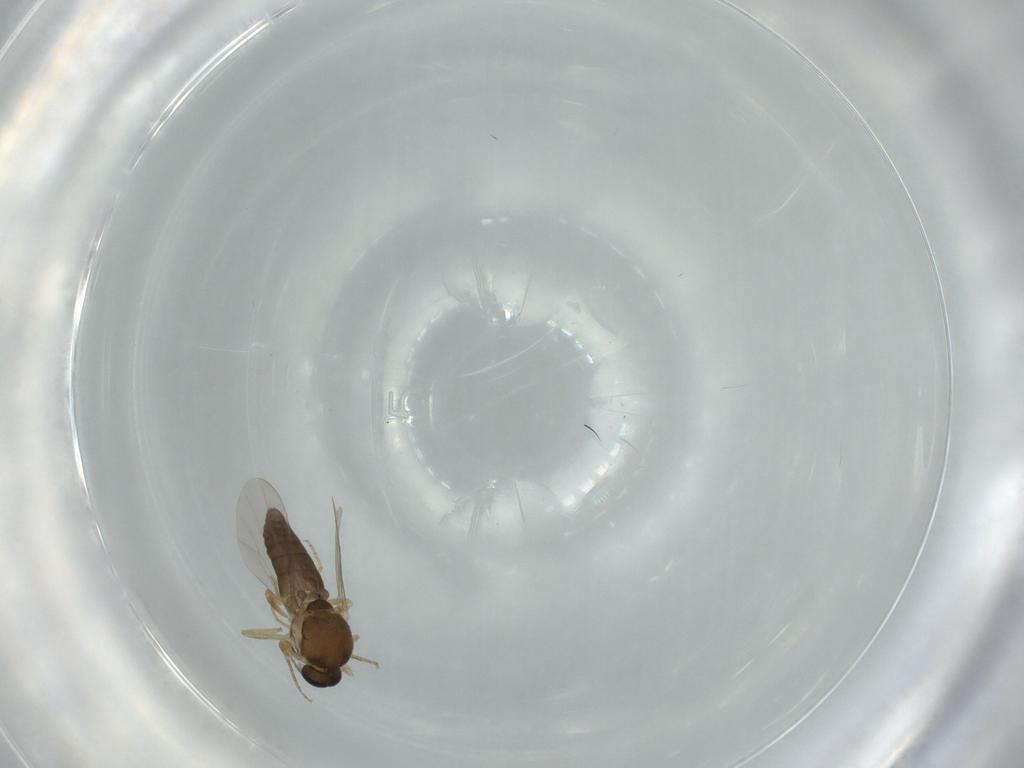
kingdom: Animalia
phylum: Arthropoda
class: Insecta
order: Diptera
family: Ceratopogonidae
